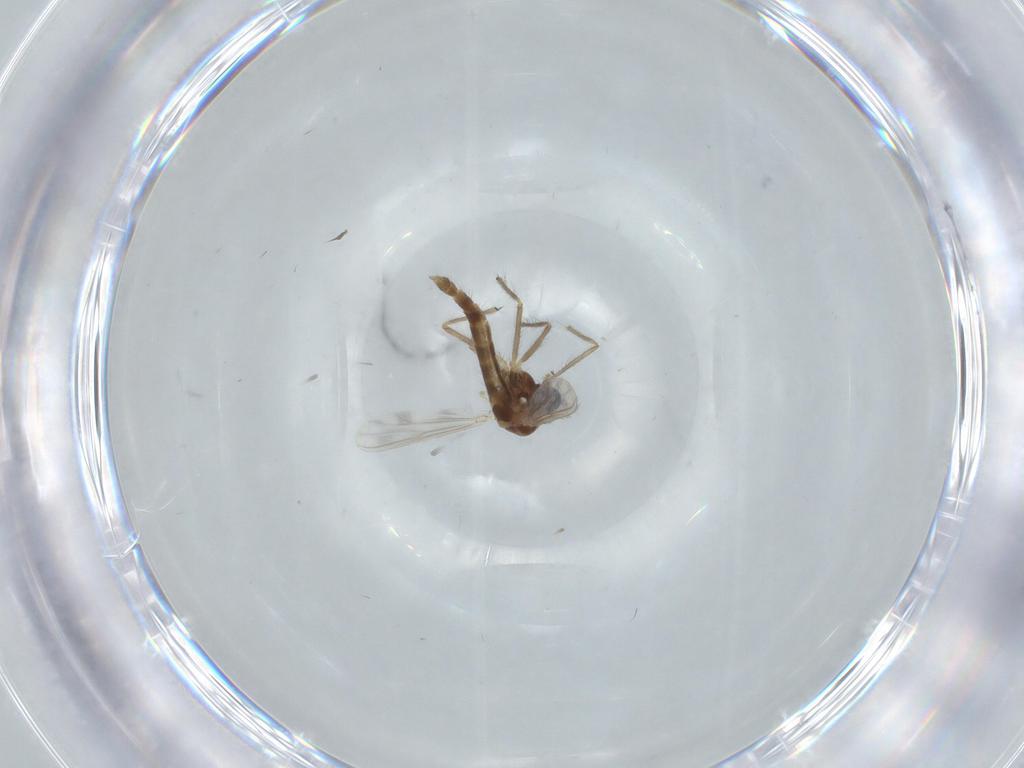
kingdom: Animalia
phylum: Arthropoda
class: Insecta
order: Diptera
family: Chironomidae
